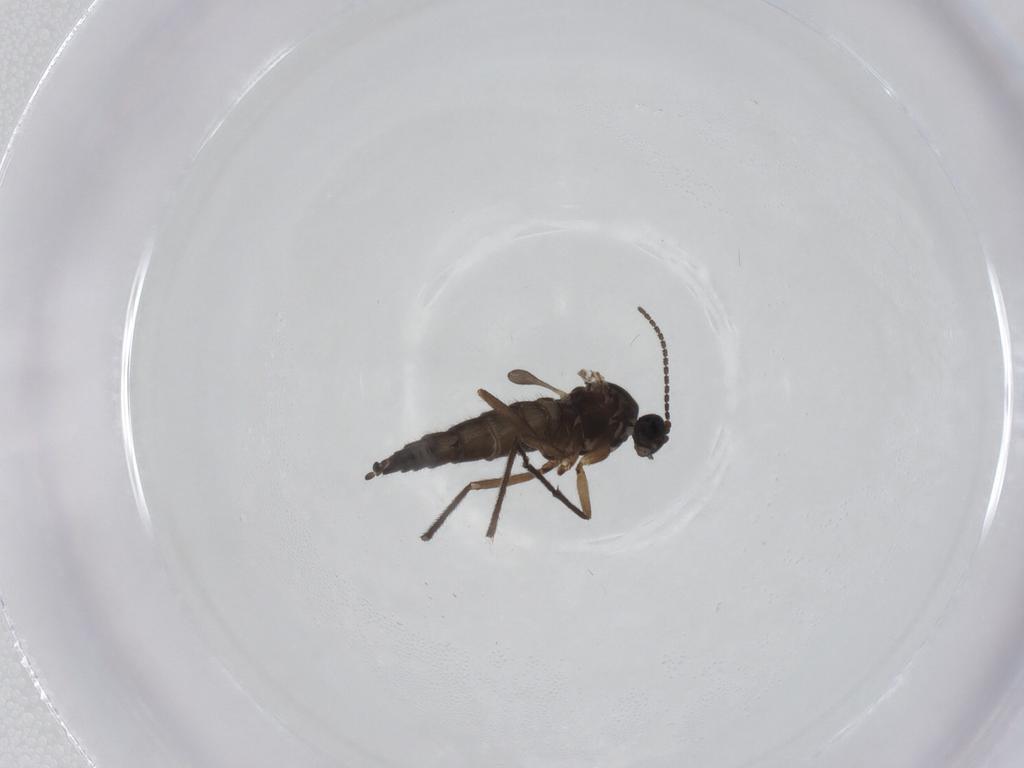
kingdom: Animalia
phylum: Arthropoda
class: Insecta
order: Diptera
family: Sciaridae
